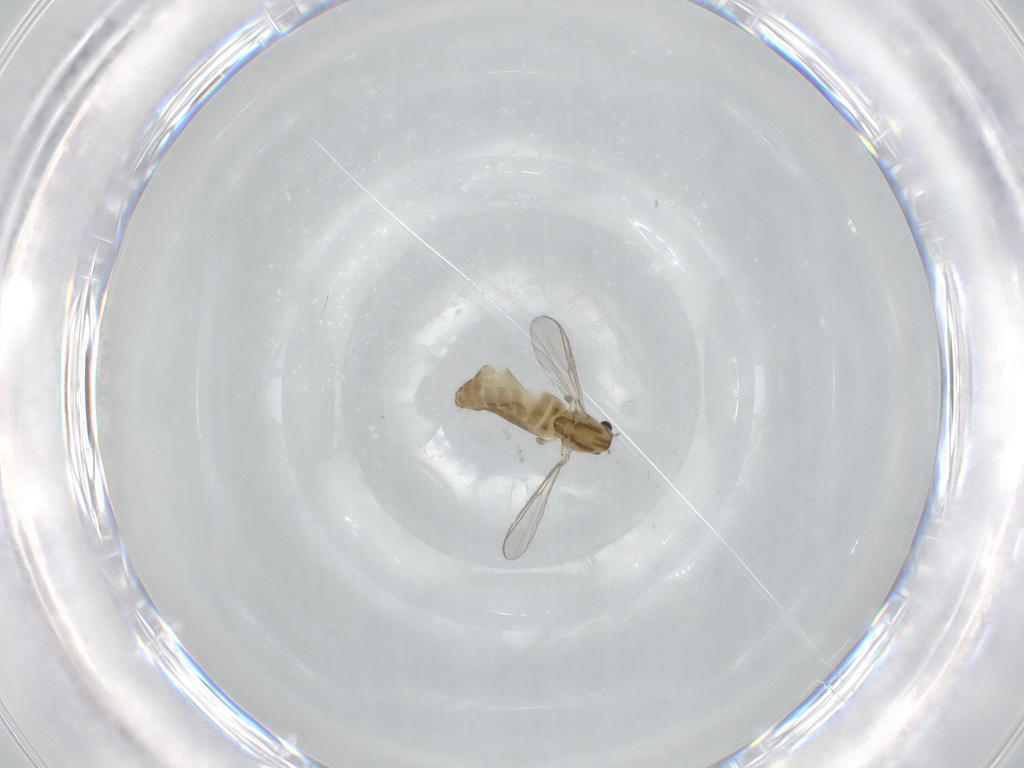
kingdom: Animalia
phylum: Arthropoda
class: Insecta
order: Diptera
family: Chironomidae
